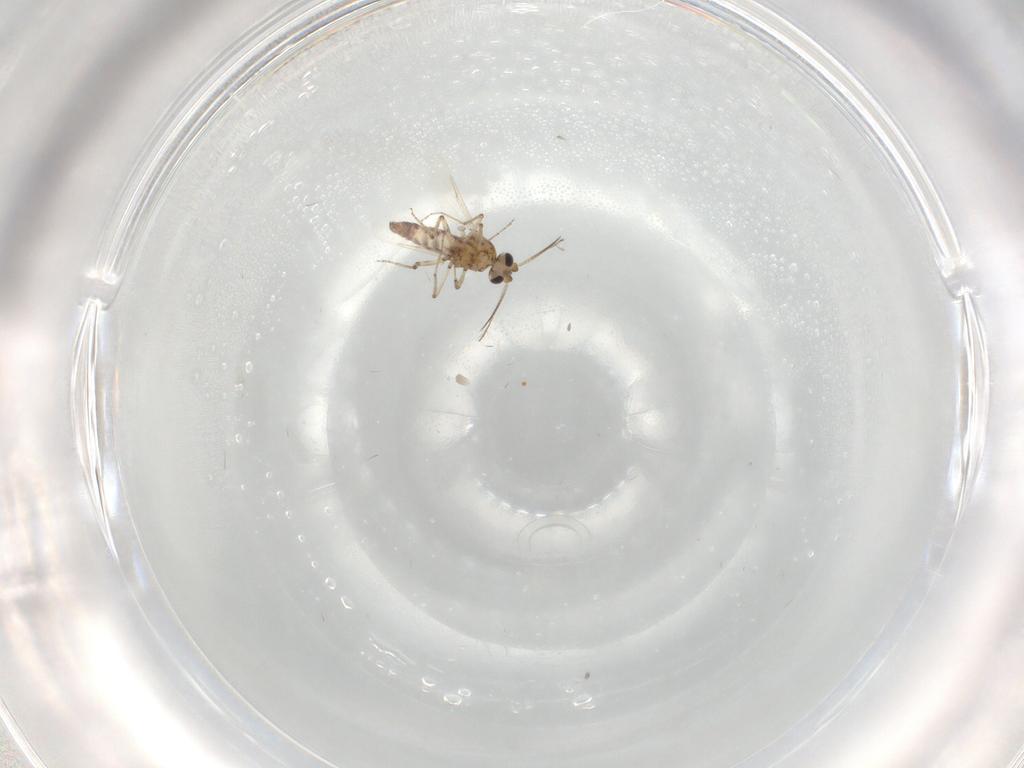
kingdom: Animalia
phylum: Arthropoda
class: Insecta
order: Diptera
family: Ceratopogonidae
